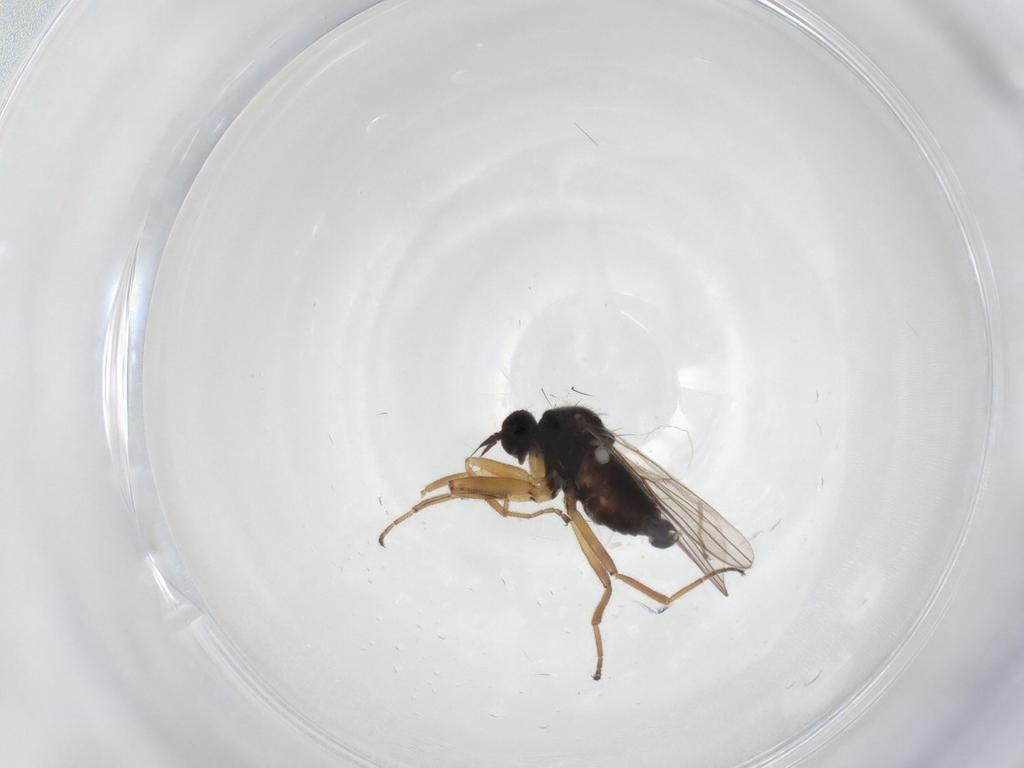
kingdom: Animalia
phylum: Arthropoda
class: Insecta
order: Diptera
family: Hybotidae
